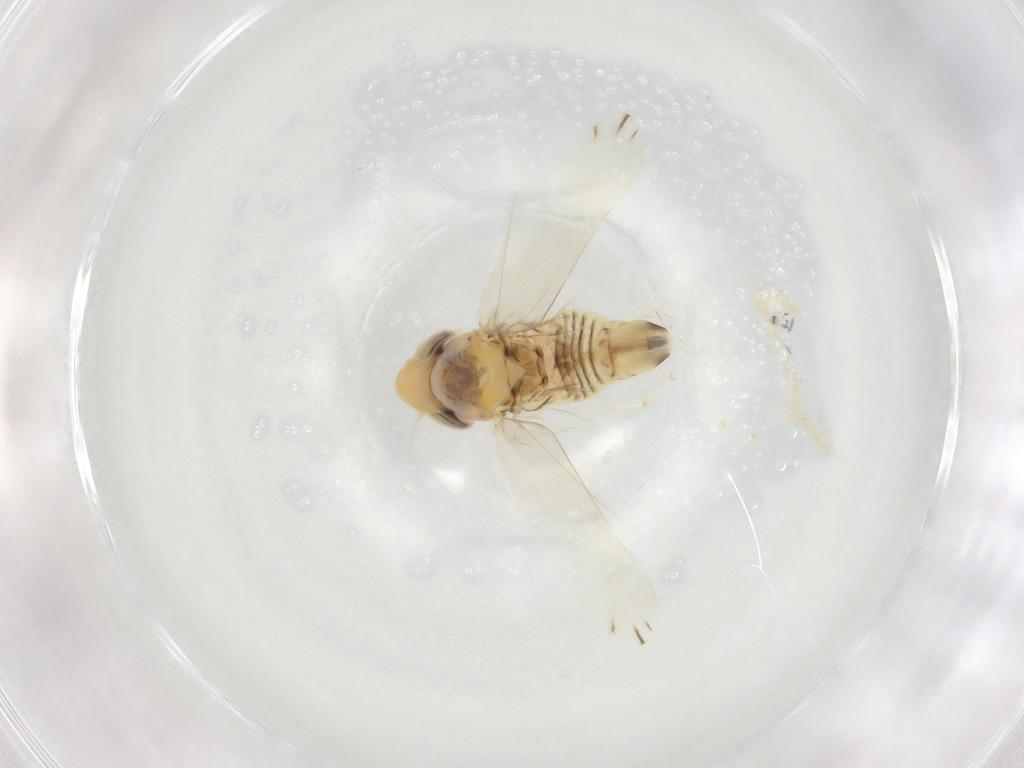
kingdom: Animalia
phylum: Arthropoda
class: Insecta
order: Hemiptera
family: Cicadellidae
